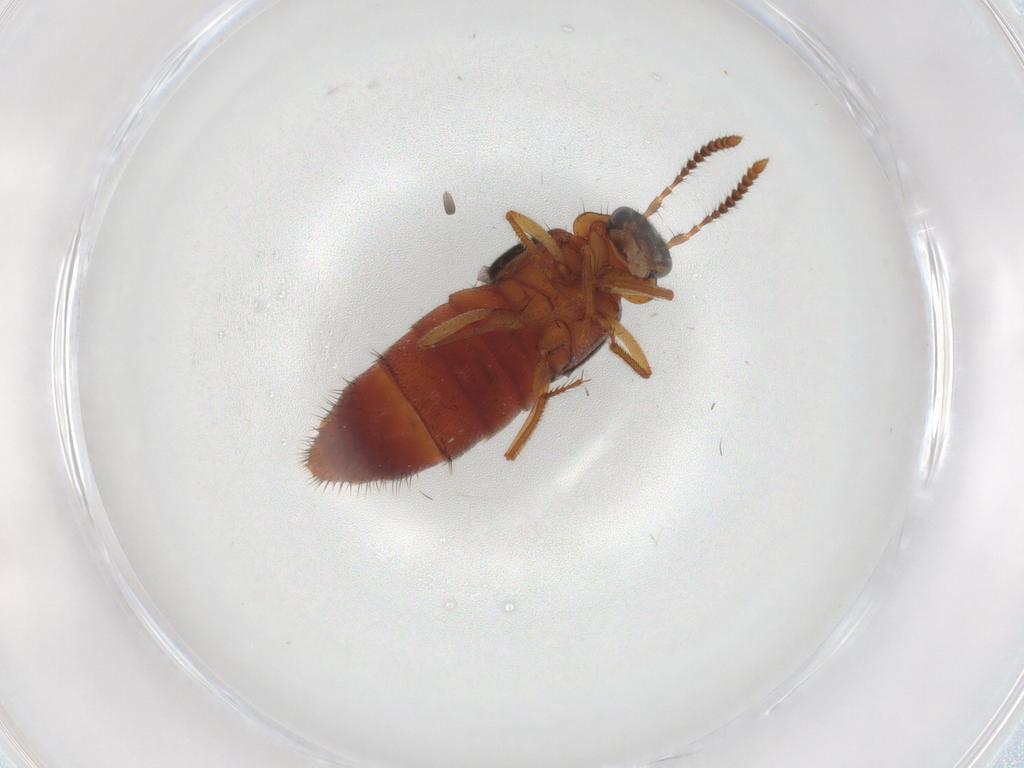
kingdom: Animalia
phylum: Arthropoda
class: Insecta
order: Coleoptera
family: Staphylinidae
